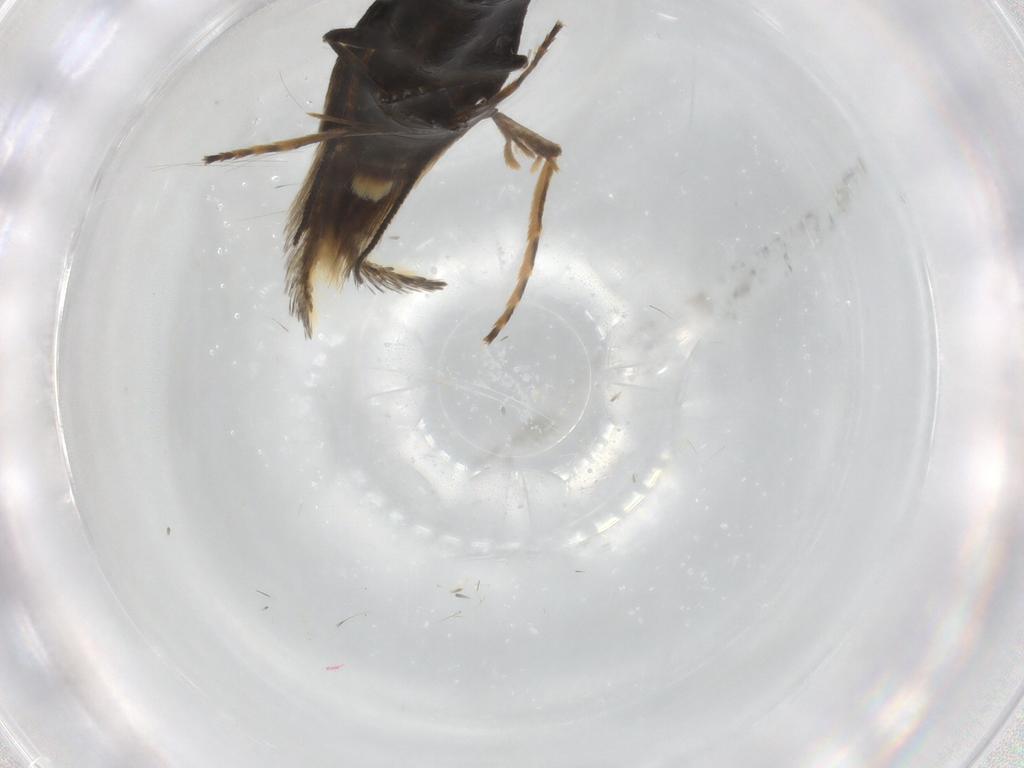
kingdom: Animalia
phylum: Arthropoda
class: Insecta
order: Lepidoptera
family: Tineidae
